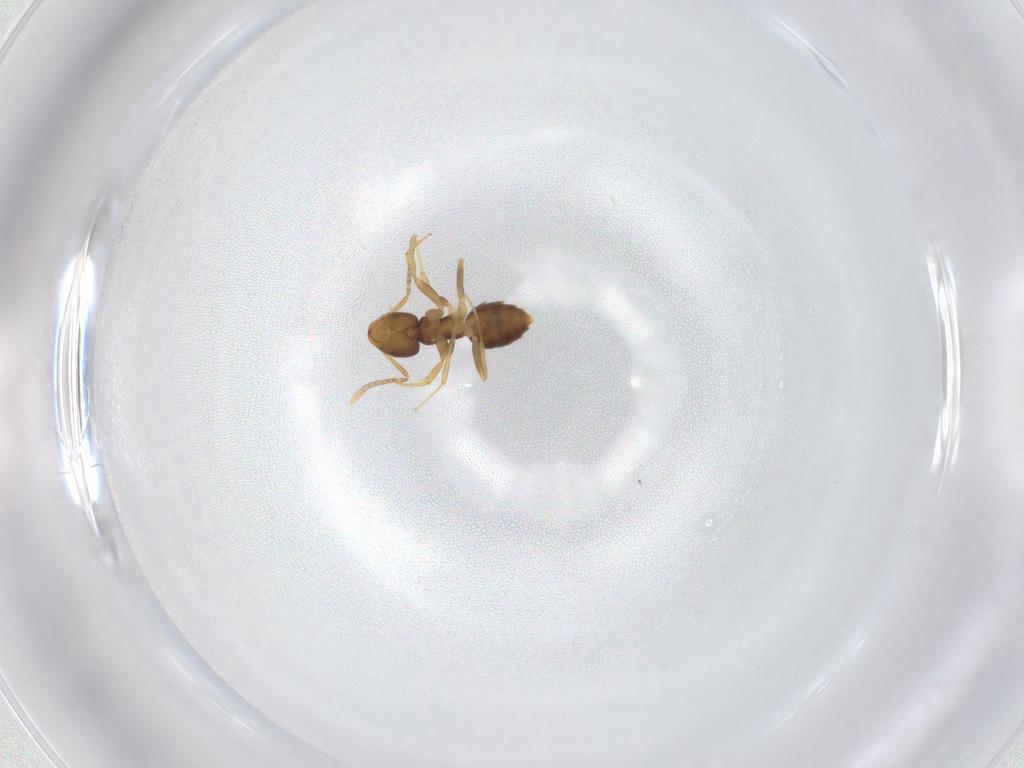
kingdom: Animalia
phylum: Arthropoda
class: Insecta
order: Hymenoptera
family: Formicidae
